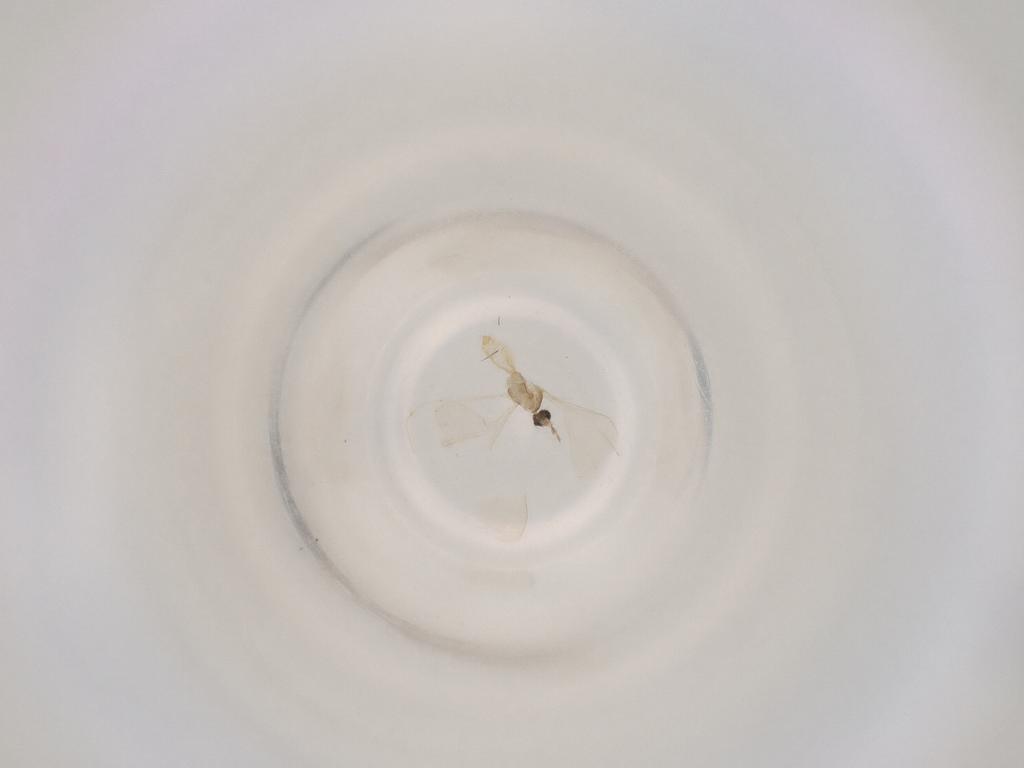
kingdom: Animalia
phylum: Arthropoda
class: Insecta
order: Diptera
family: Cecidomyiidae
